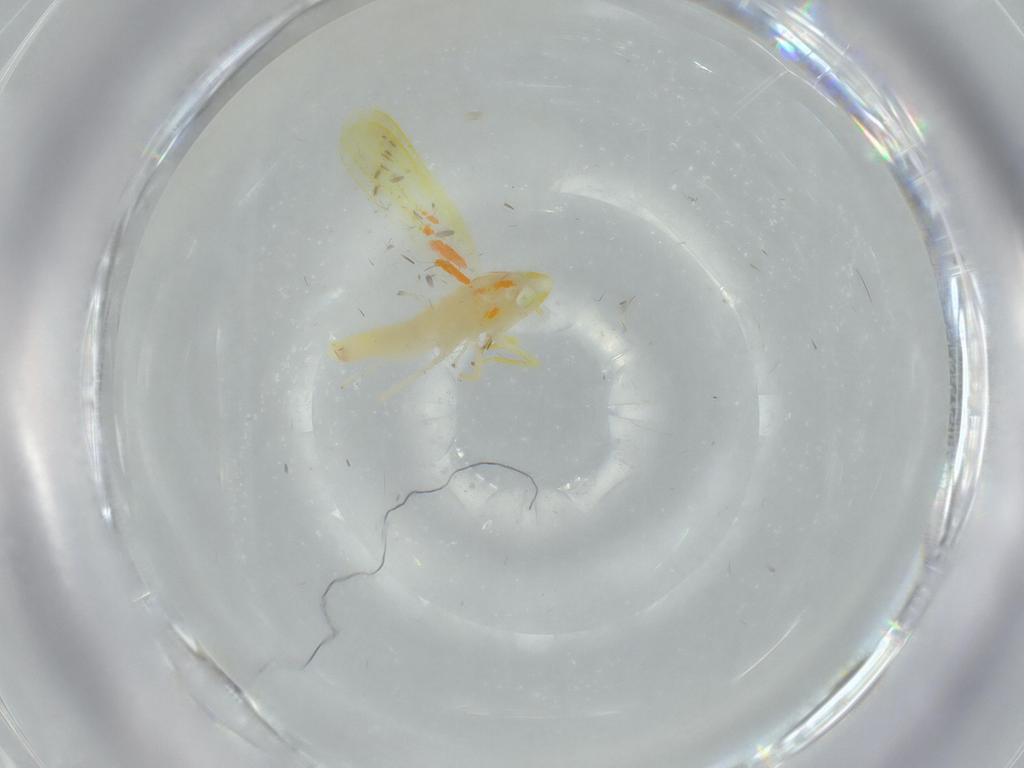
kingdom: Animalia
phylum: Arthropoda
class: Insecta
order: Hemiptera
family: Cicadellidae
